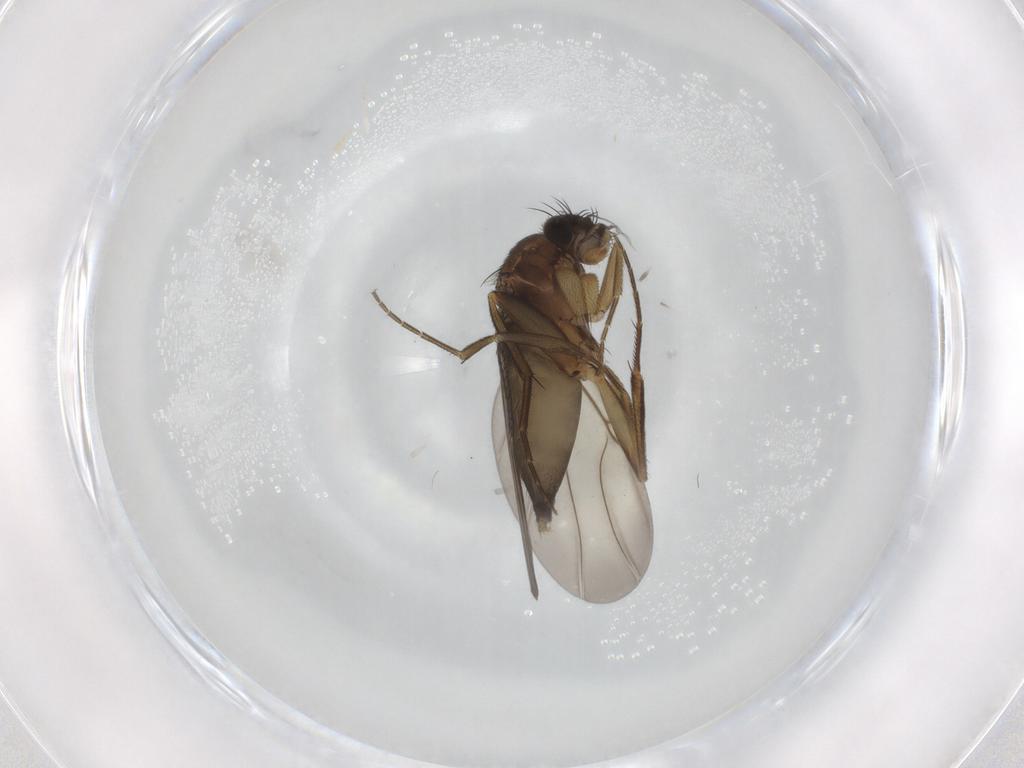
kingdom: Animalia
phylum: Arthropoda
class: Insecta
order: Diptera
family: Phoridae
